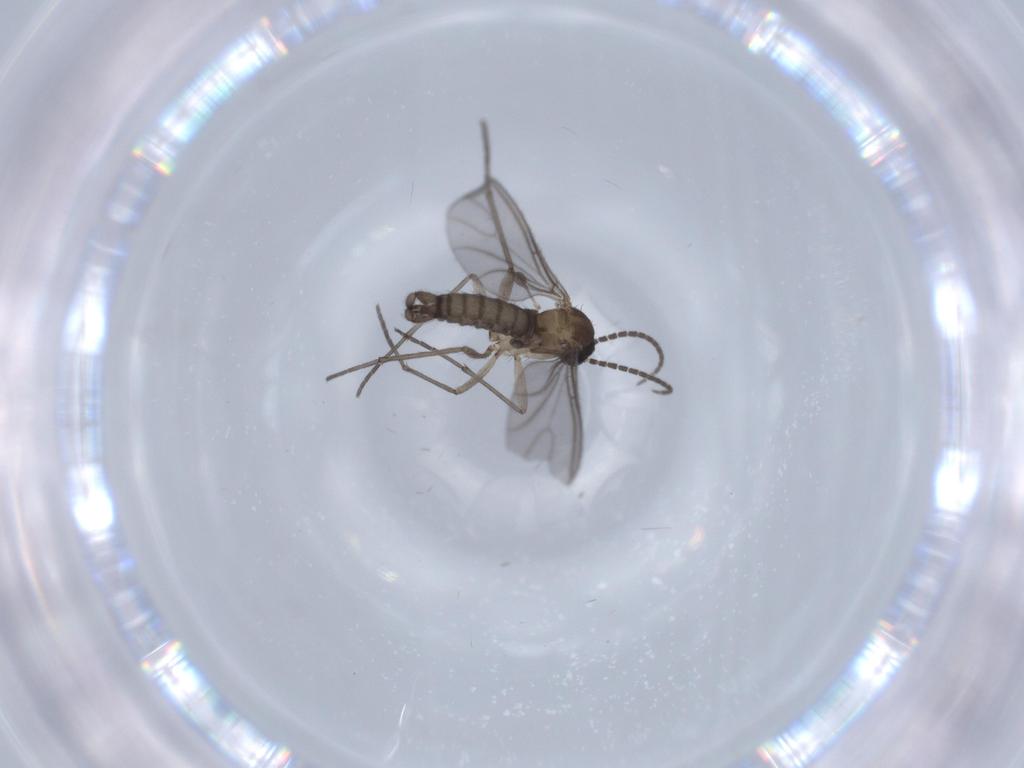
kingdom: Animalia
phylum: Arthropoda
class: Insecta
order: Diptera
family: Sciaridae
